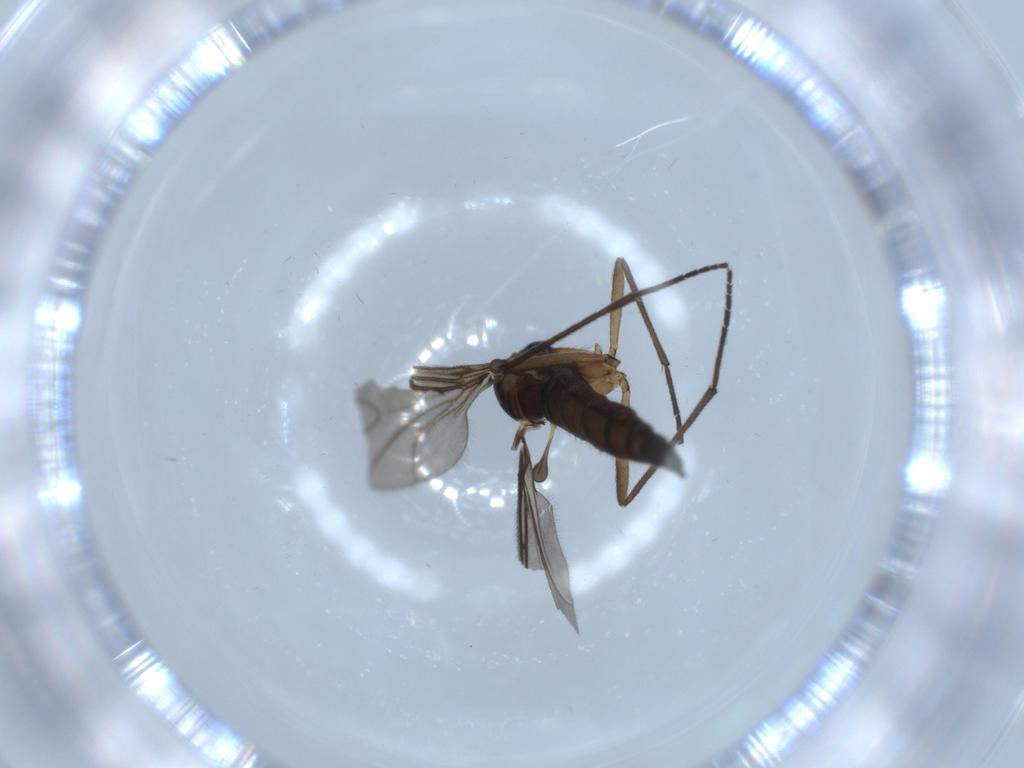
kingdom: Animalia
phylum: Arthropoda
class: Insecta
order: Diptera
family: Sciaridae
